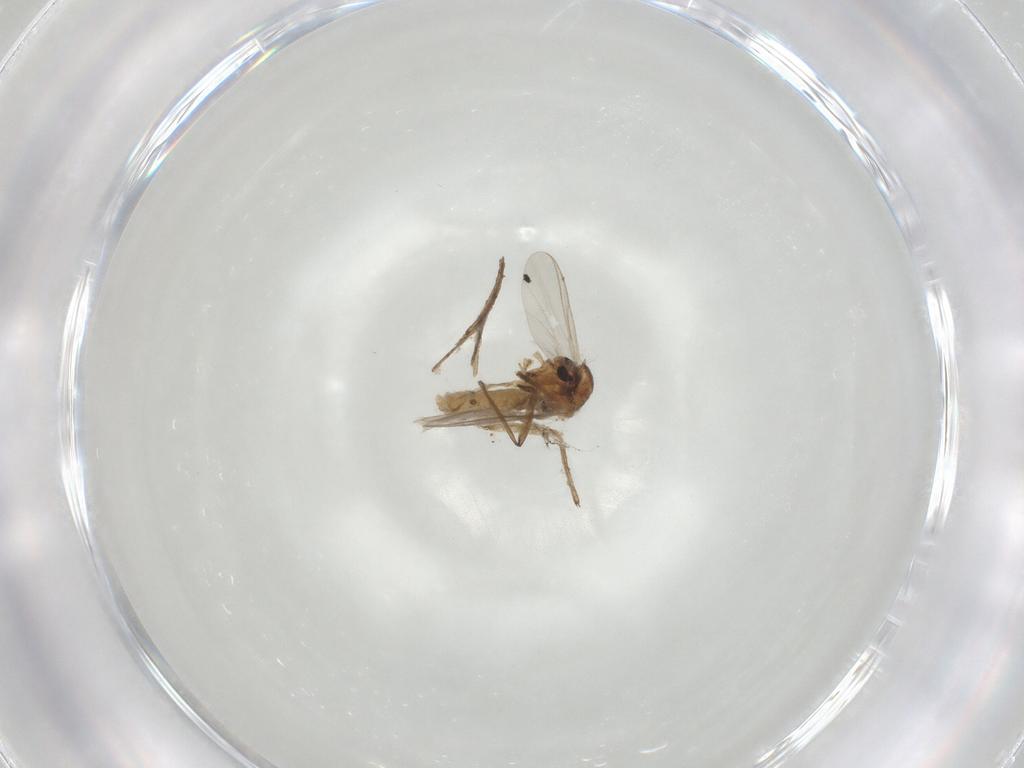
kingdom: Animalia
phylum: Arthropoda
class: Insecta
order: Diptera
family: Chironomidae
